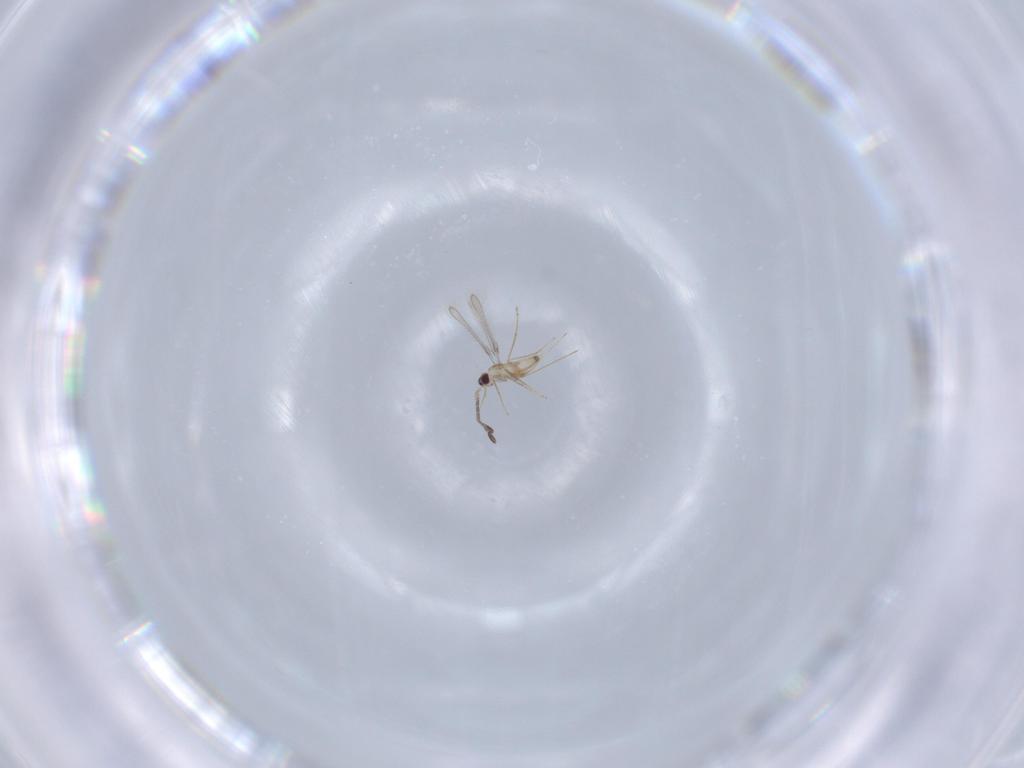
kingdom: Animalia
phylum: Arthropoda
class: Insecta
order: Hymenoptera
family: Mymaridae
